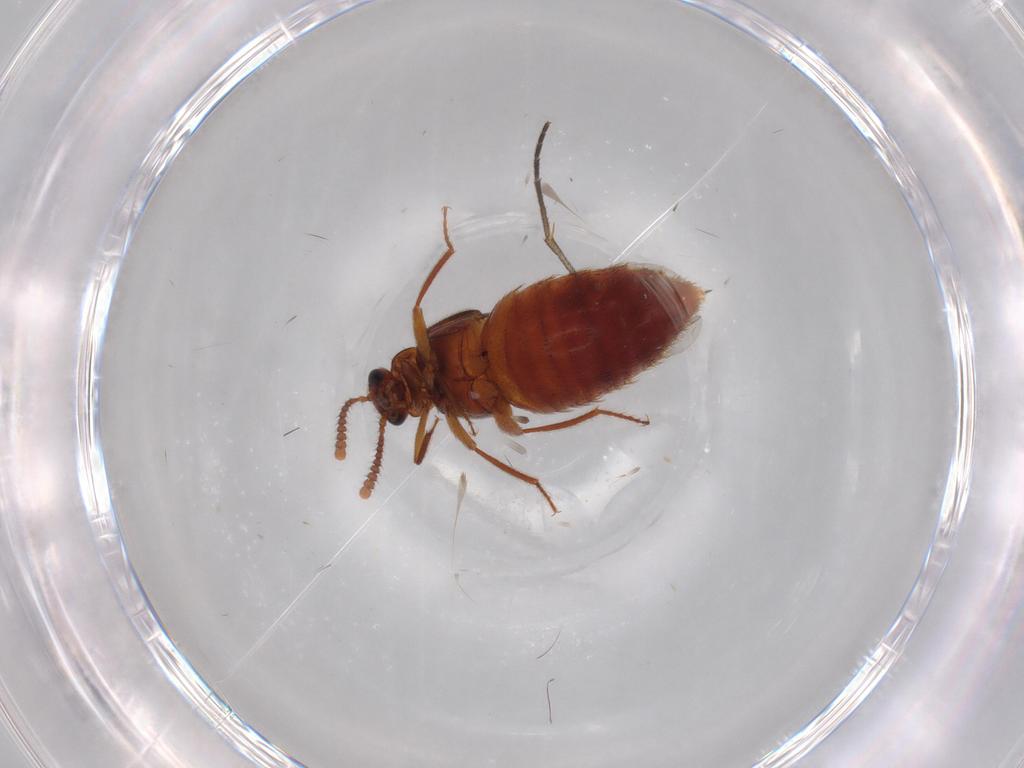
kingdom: Animalia
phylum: Arthropoda
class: Insecta
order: Coleoptera
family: Staphylinidae
